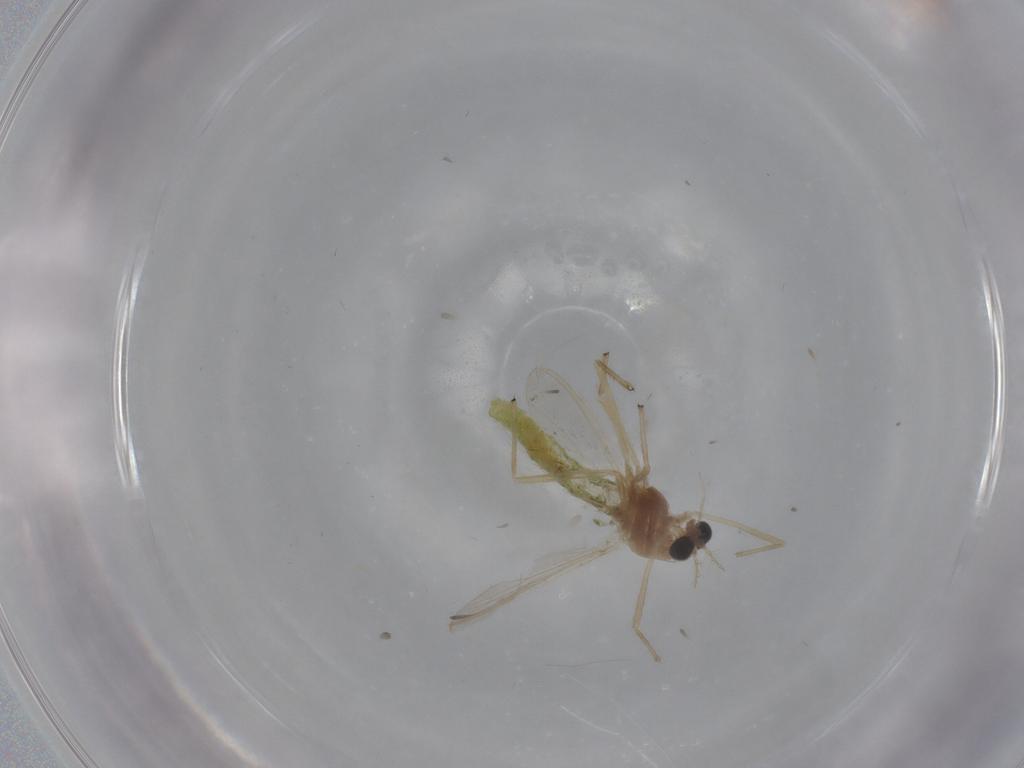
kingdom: Animalia
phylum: Arthropoda
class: Insecta
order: Diptera
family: Chironomidae
